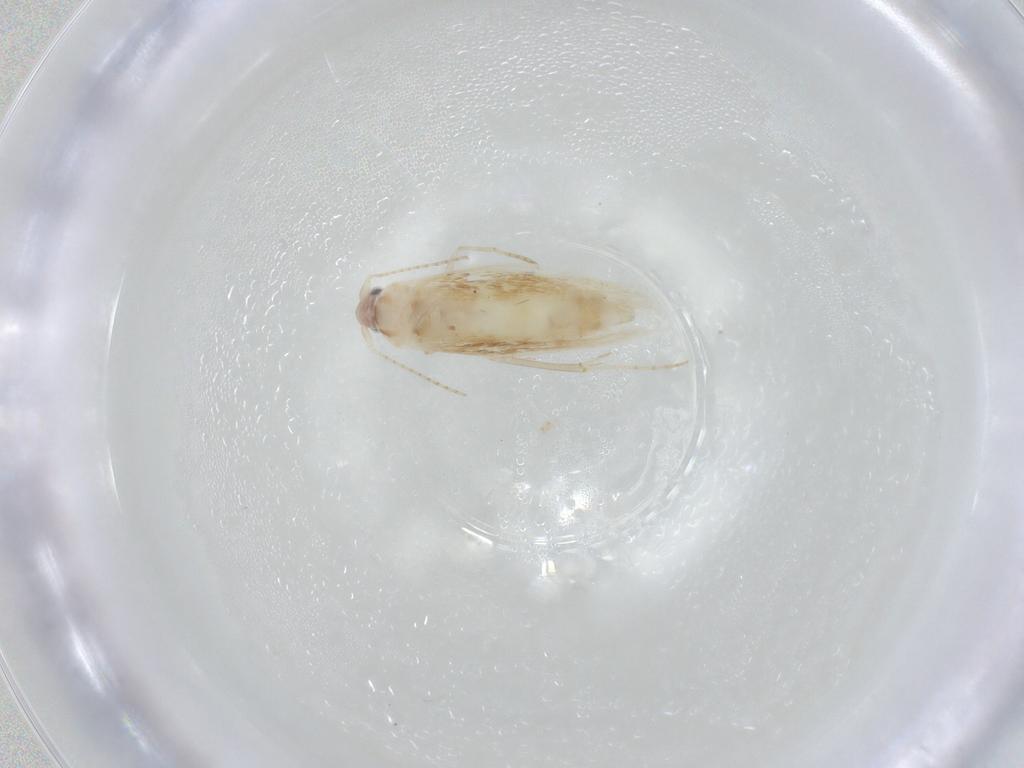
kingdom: Animalia
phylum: Arthropoda
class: Insecta
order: Lepidoptera
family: Bucculatricidae
